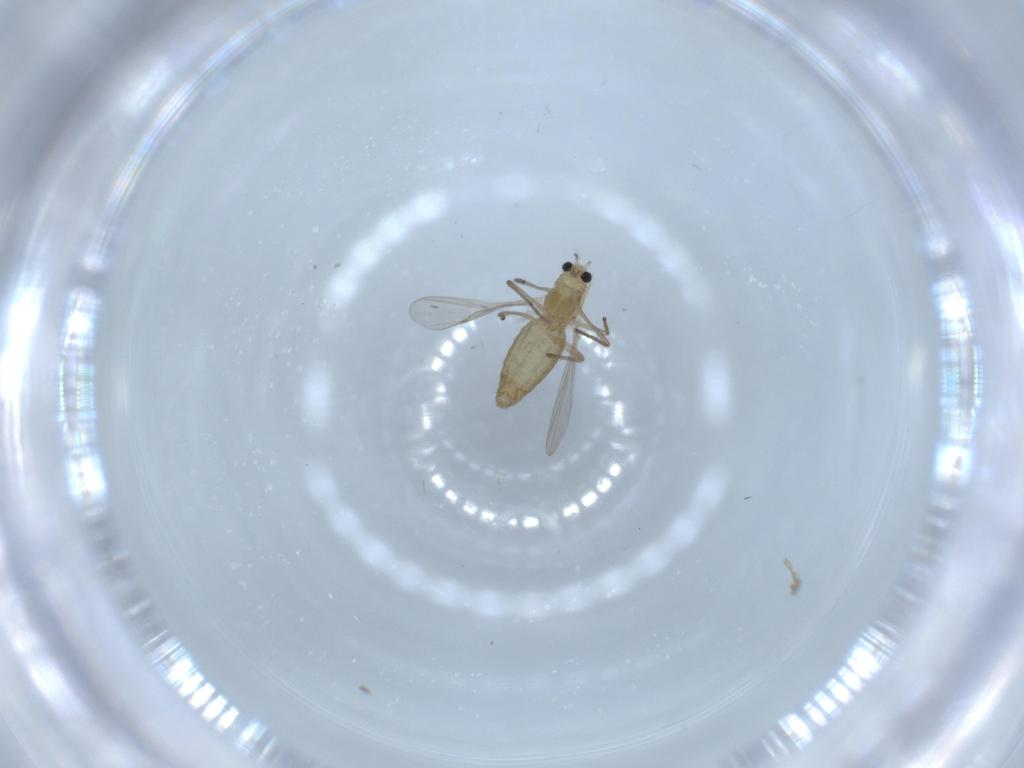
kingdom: Animalia
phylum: Arthropoda
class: Insecta
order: Diptera
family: Chironomidae
